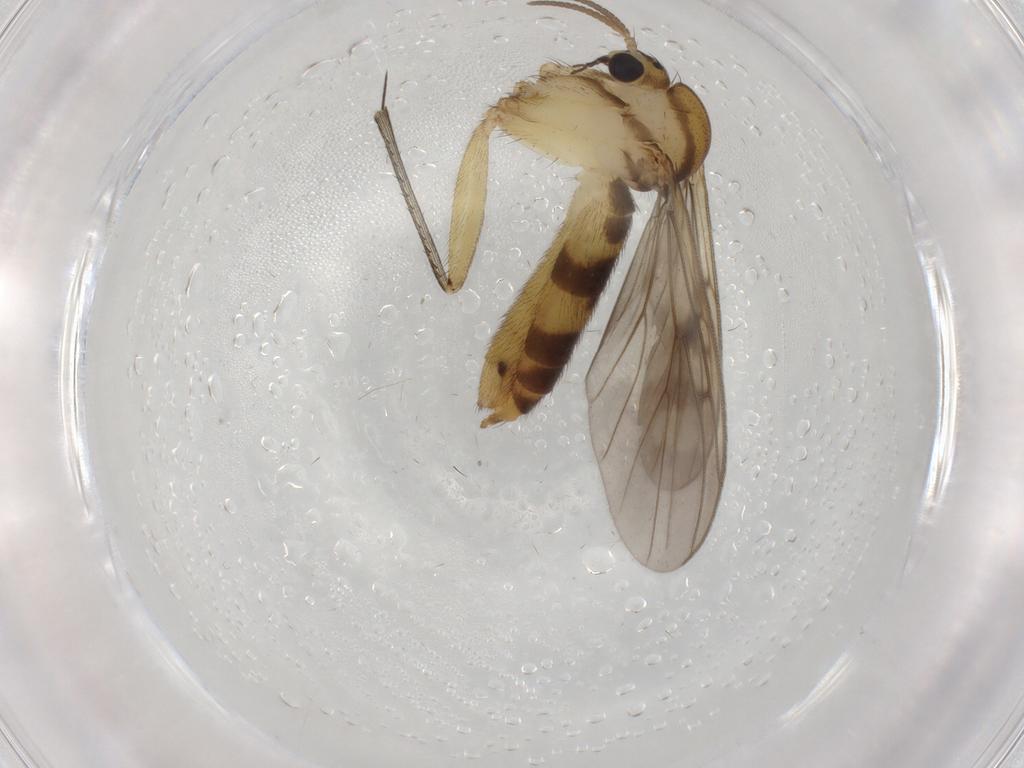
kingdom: Animalia
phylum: Arthropoda
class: Insecta
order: Diptera
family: Mycetophilidae
